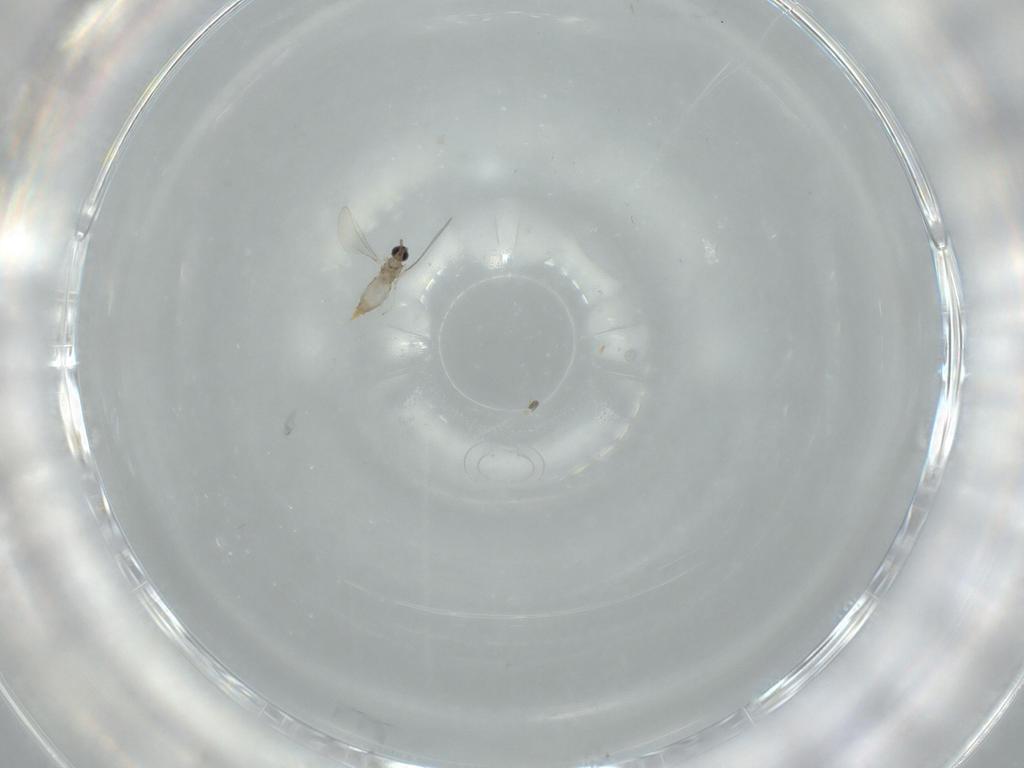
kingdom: Animalia
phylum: Arthropoda
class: Insecta
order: Diptera
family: Cecidomyiidae
